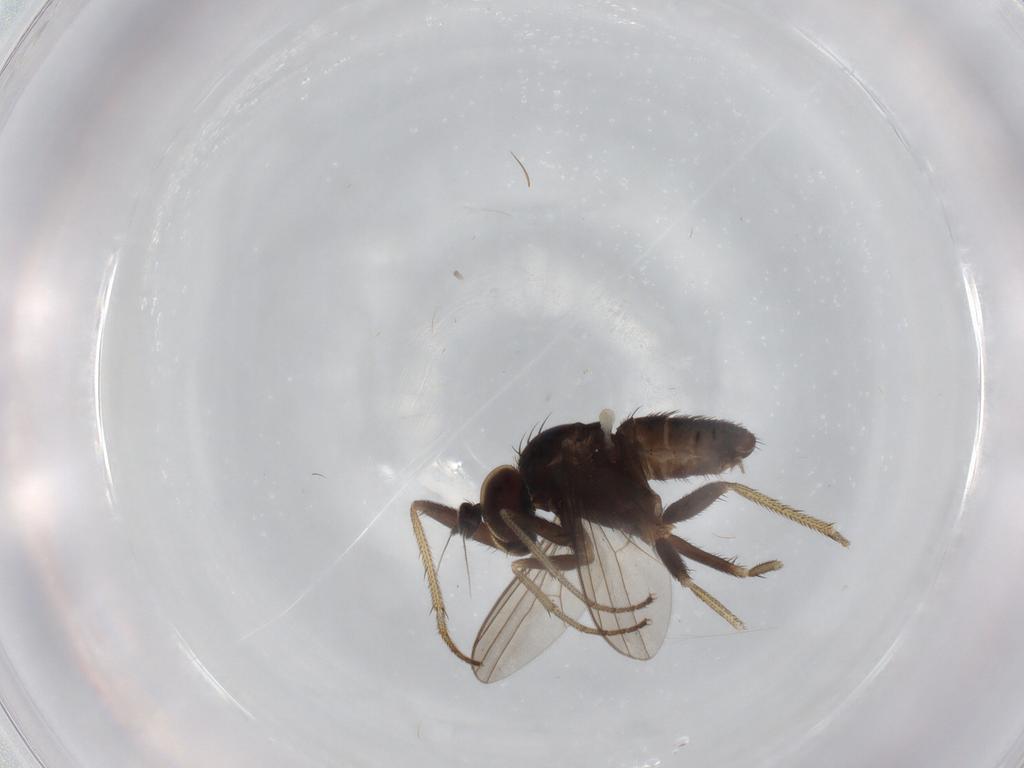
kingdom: Animalia
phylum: Arthropoda
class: Insecta
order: Diptera
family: Dolichopodidae
